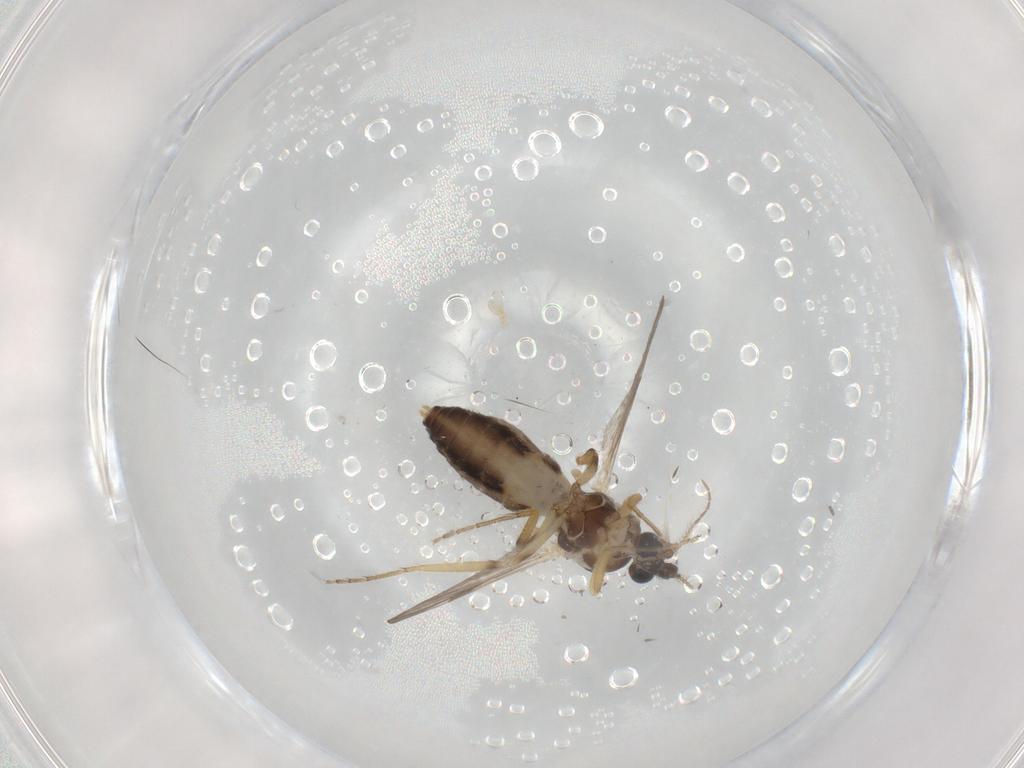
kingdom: Animalia
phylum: Arthropoda
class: Insecta
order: Diptera
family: Ceratopogonidae
